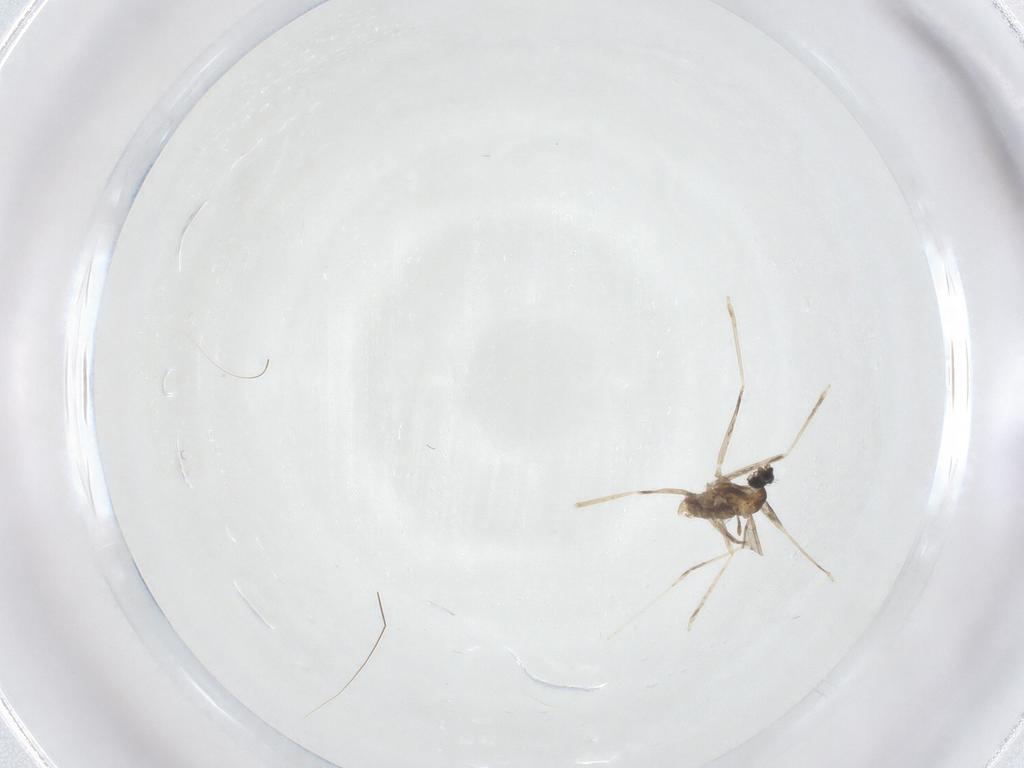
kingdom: Animalia
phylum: Arthropoda
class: Insecta
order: Diptera
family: Cecidomyiidae
